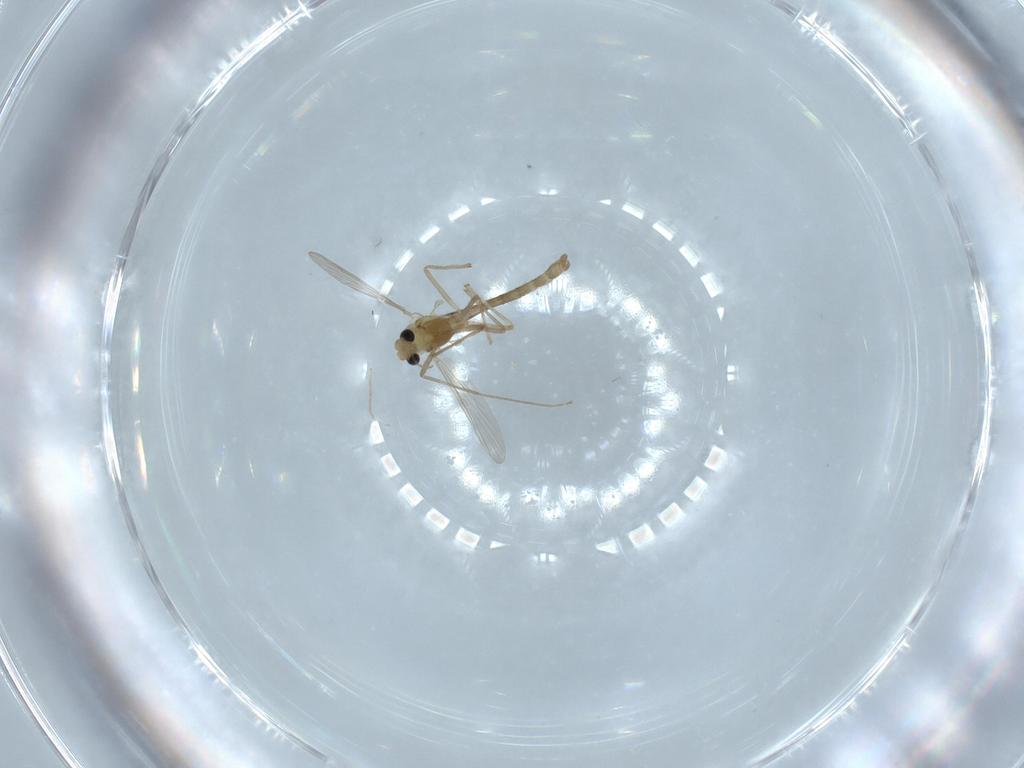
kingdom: Animalia
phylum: Arthropoda
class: Insecta
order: Diptera
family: Chironomidae
